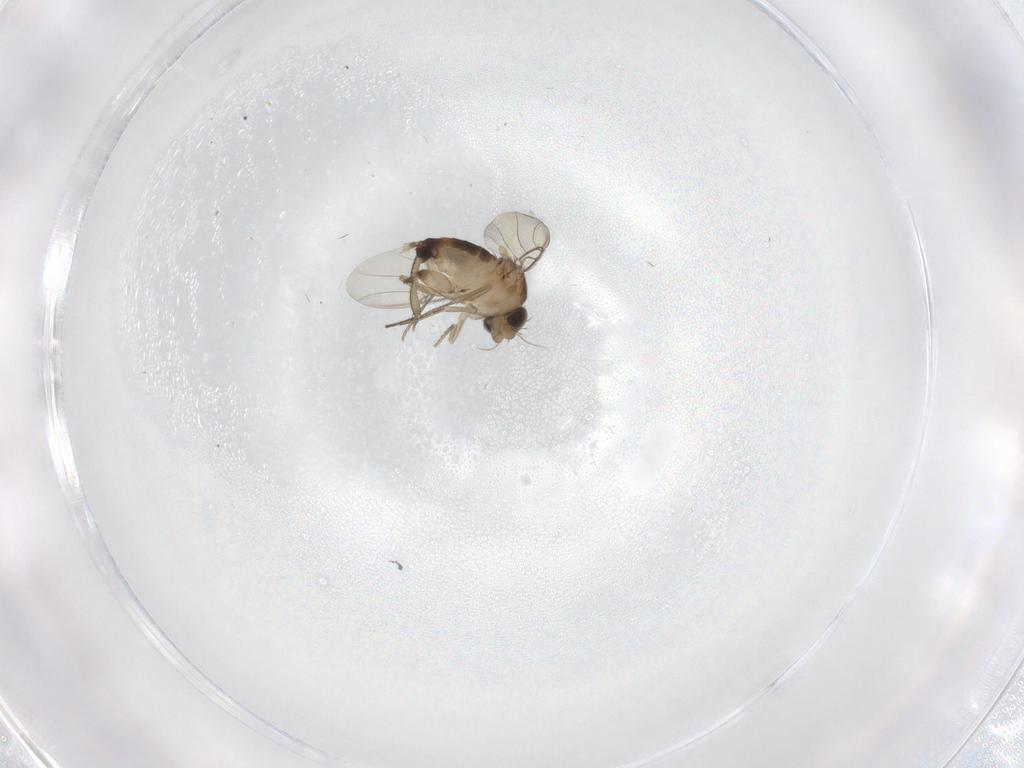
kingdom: Animalia
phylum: Arthropoda
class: Insecta
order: Diptera
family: Phoridae
